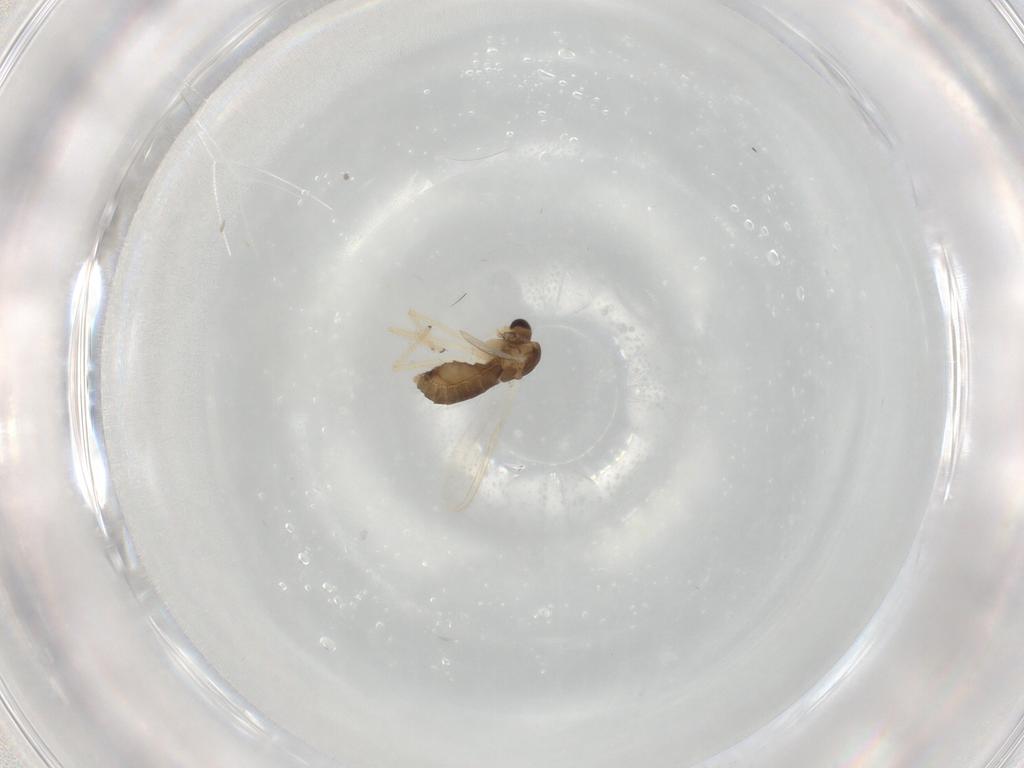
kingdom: Animalia
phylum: Arthropoda
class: Insecta
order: Diptera
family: Chironomidae
